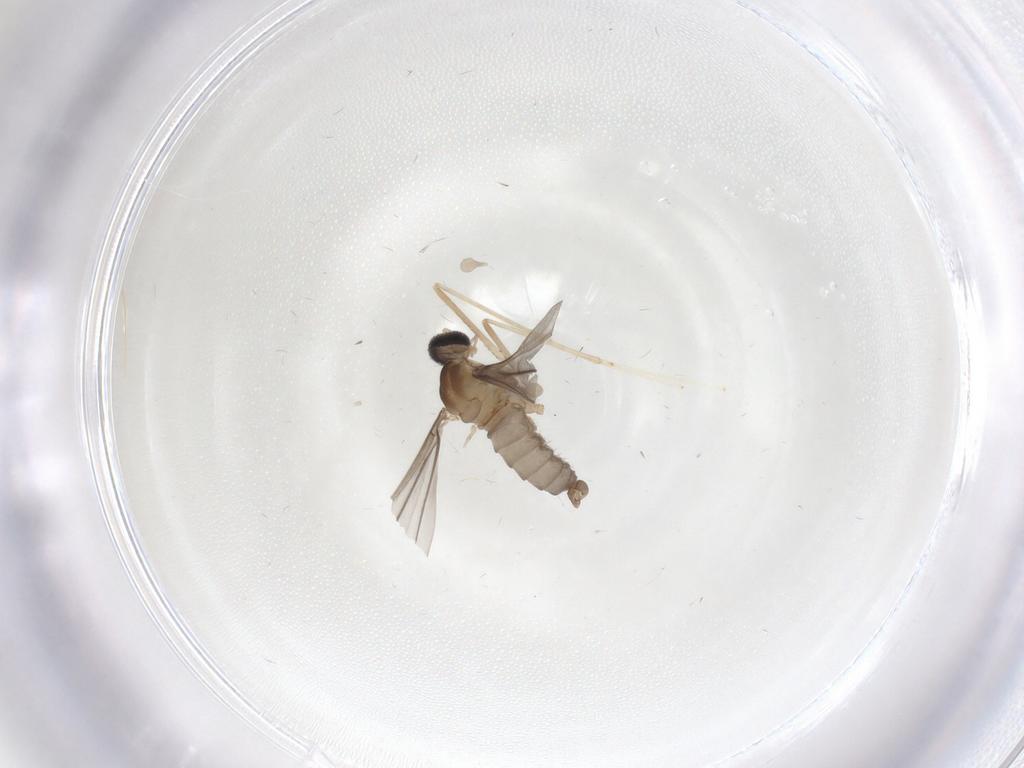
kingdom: Animalia
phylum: Arthropoda
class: Insecta
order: Diptera
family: Cecidomyiidae
